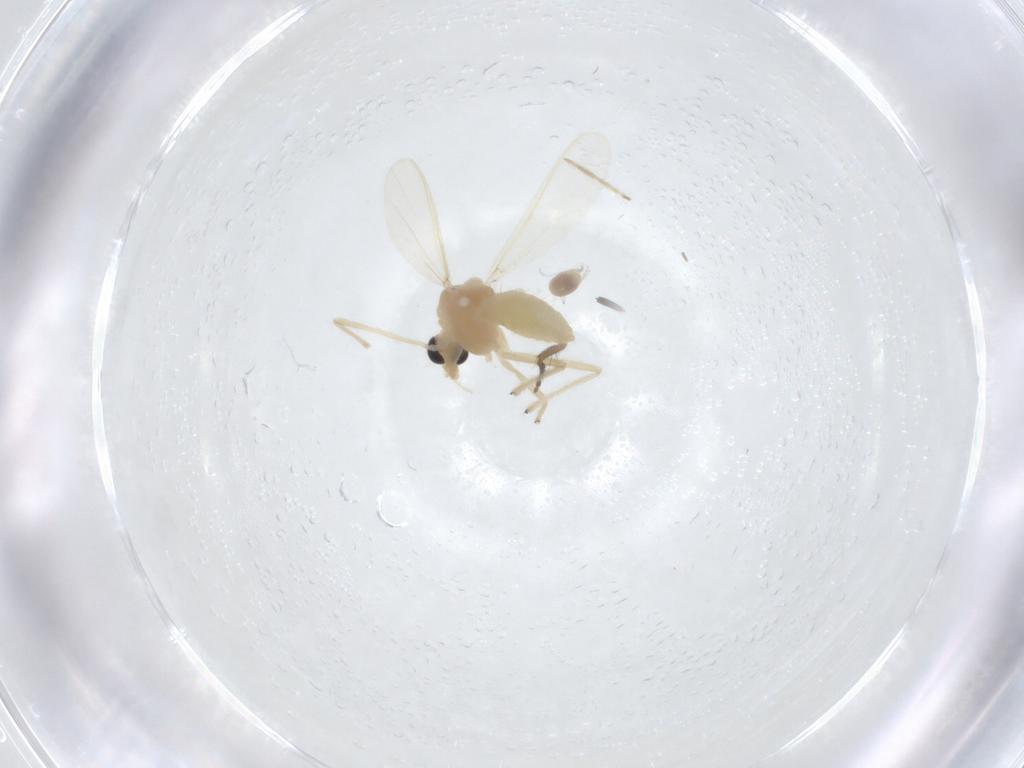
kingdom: Animalia
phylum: Arthropoda
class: Insecta
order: Diptera
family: Chironomidae
